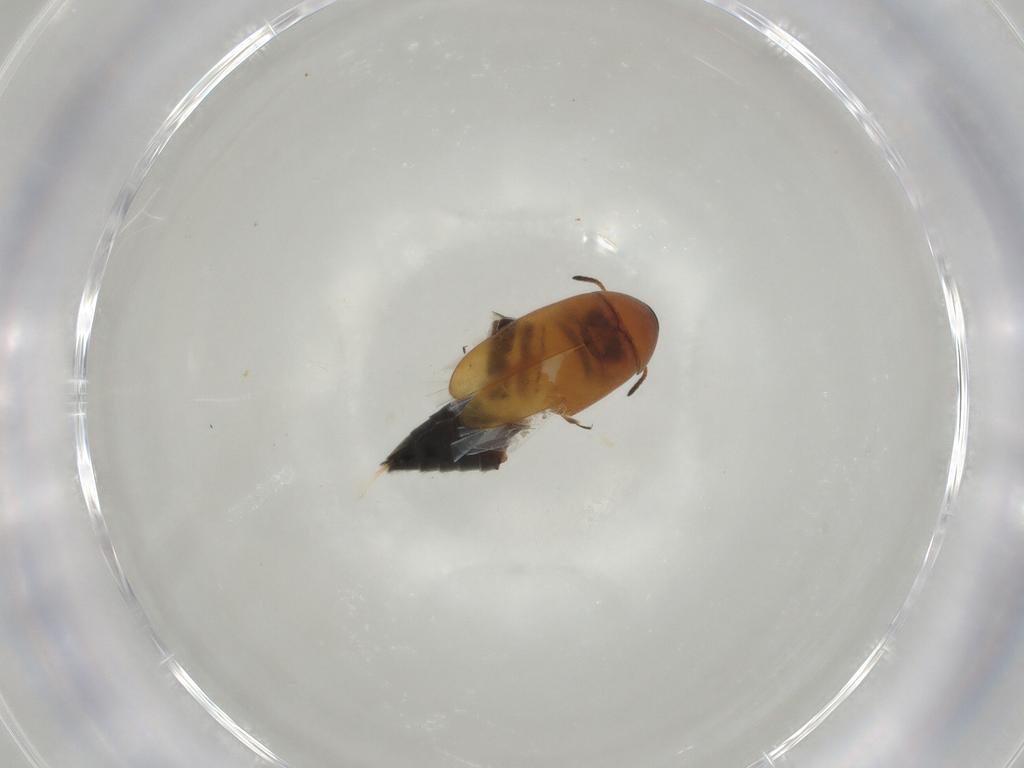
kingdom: Animalia
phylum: Arthropoda
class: Insecta
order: Coleoptera
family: Scraptiidae
